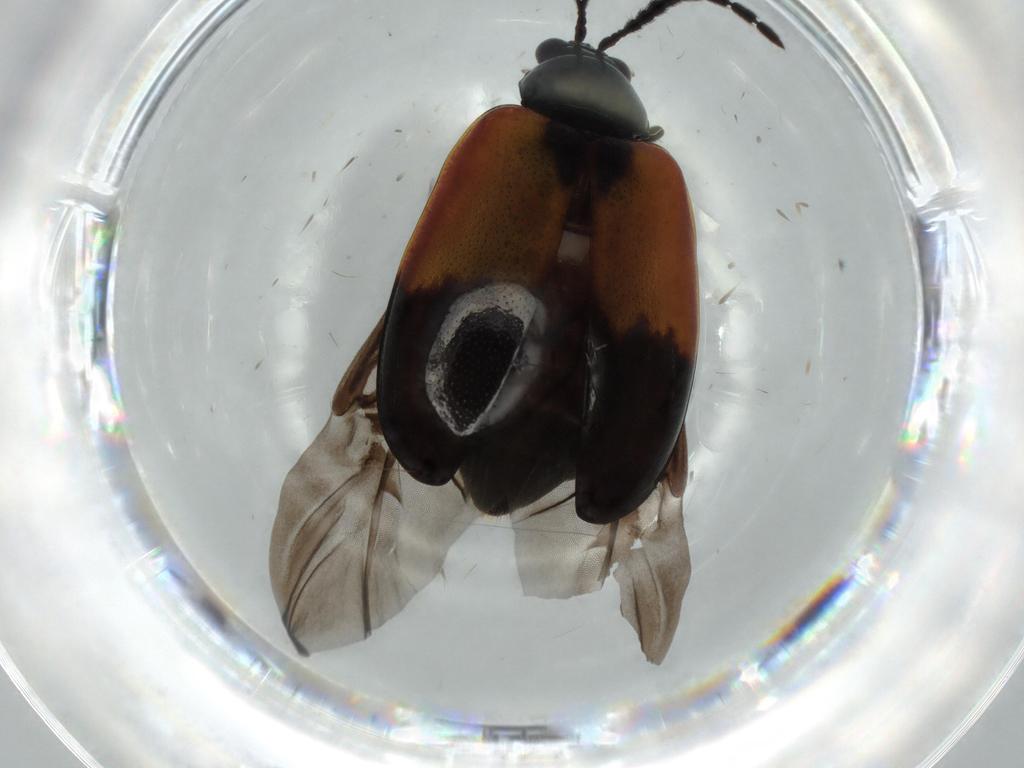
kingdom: Animalia
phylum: Arthropoda
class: Insecta
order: Coleoptera
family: Chrysomelidae
